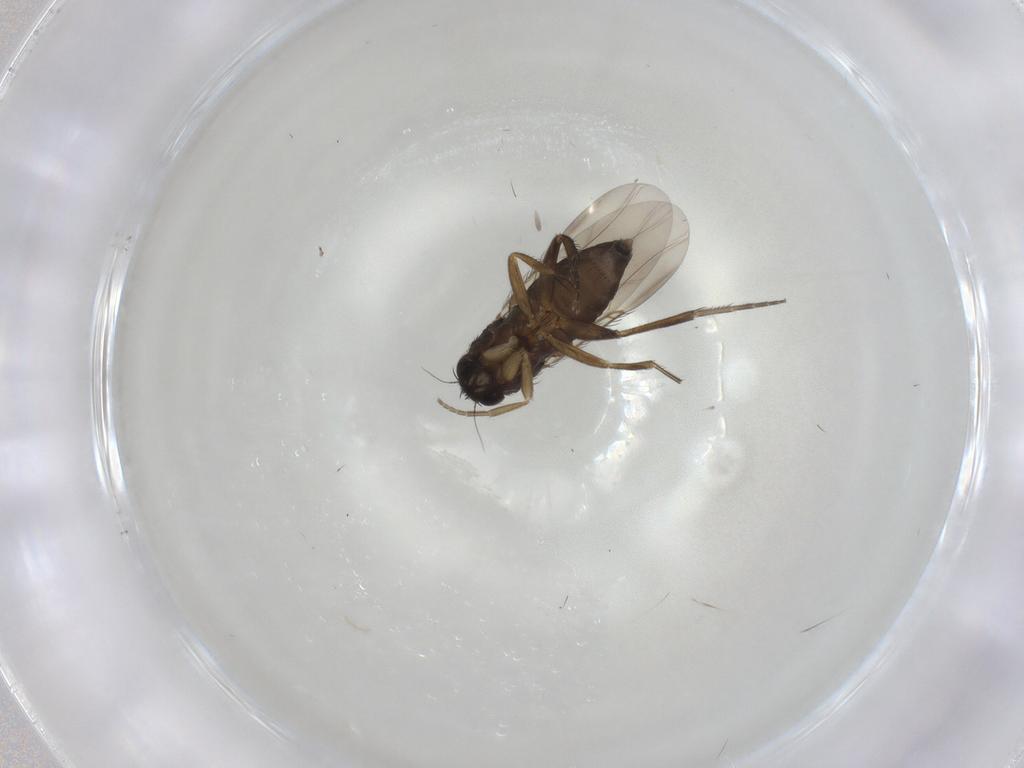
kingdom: Animalia
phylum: Arthropoda
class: Insecta
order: Diptera
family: Phoridae
